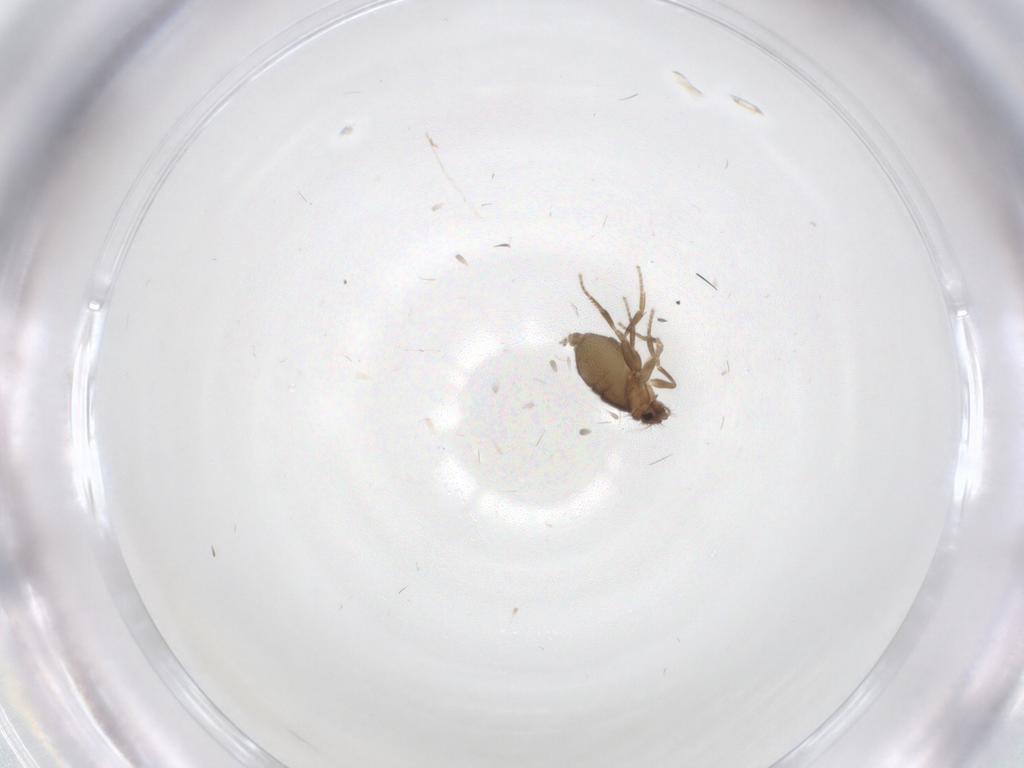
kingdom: Animalia
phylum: Arthropoda
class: Insecta
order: Diptera
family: Phoridae
